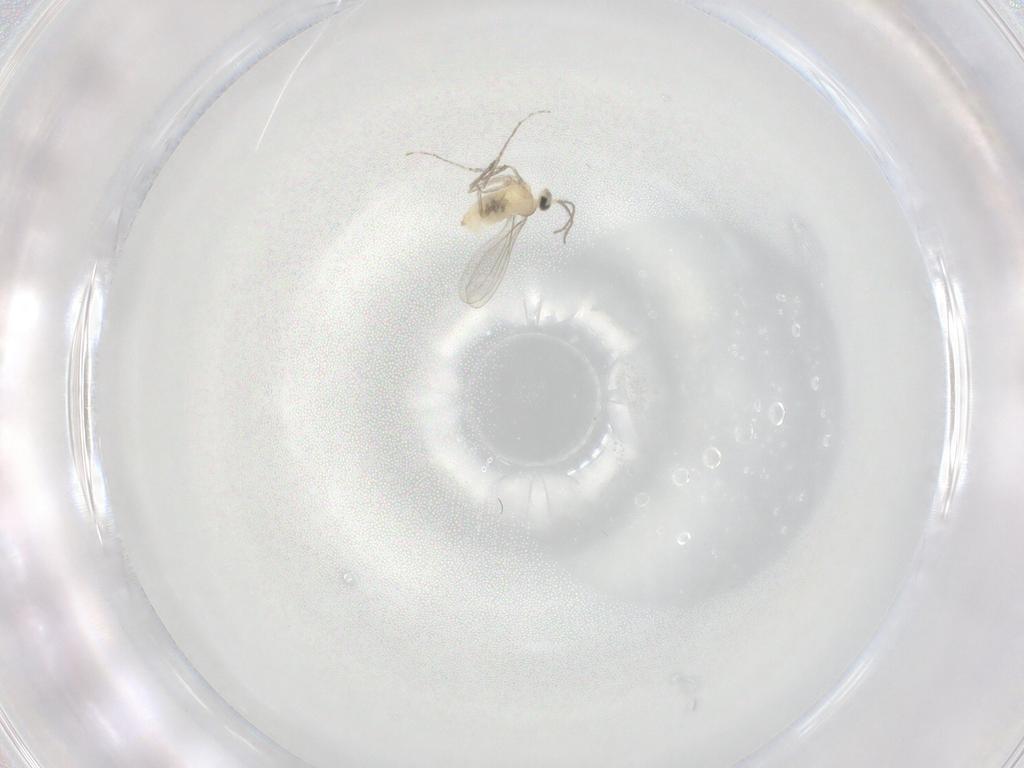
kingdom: Animalia
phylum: Arthropoda
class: Insecta
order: Diptera
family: Cecidomyiidae
